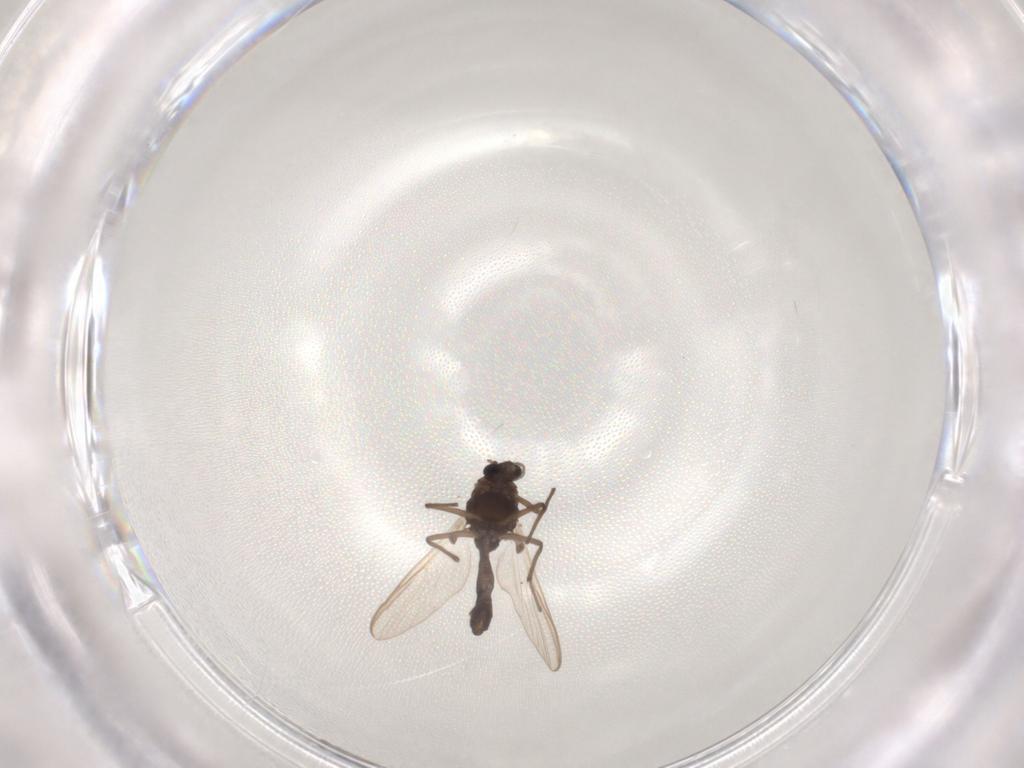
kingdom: Animalia
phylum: Arthropoda
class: Insecta
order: Diptera
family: Chironomidae
